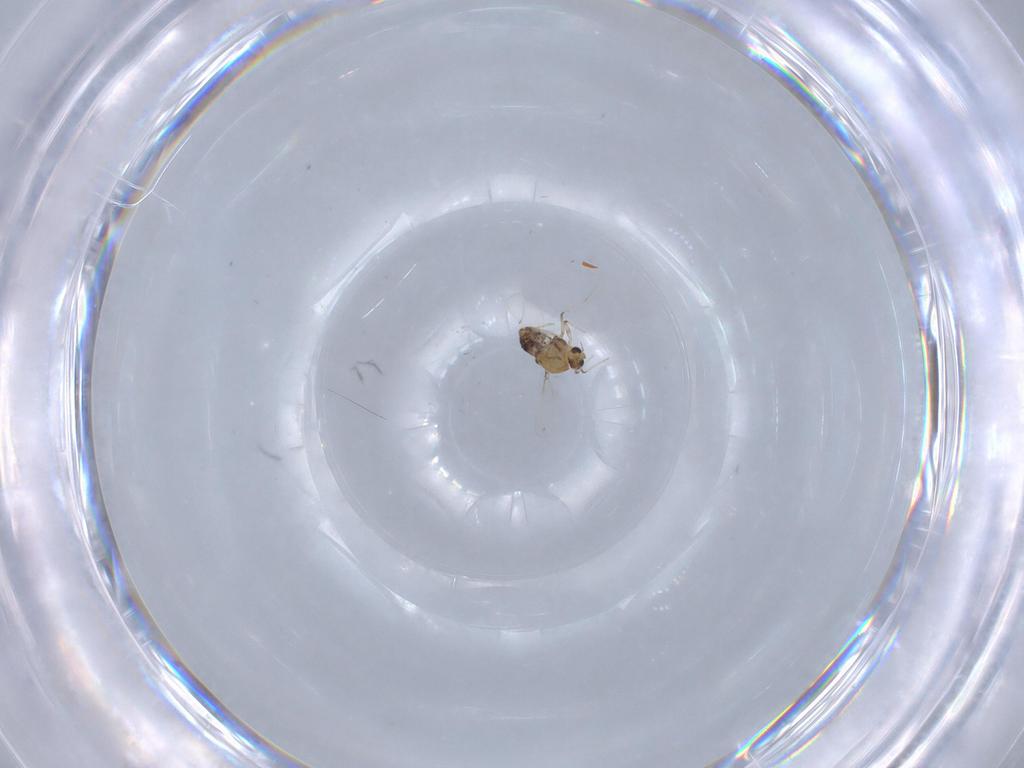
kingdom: Animalia
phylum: Arthropoda
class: Insecta
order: Diptera
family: Chironomidae
